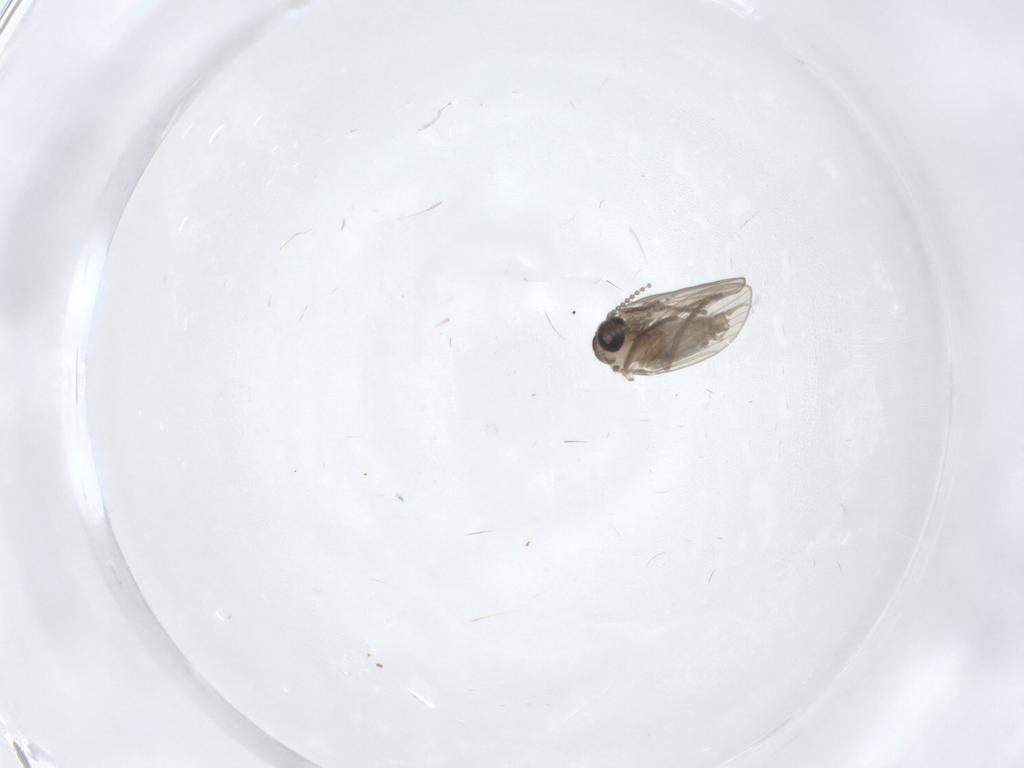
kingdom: Animalia
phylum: Arthropoda
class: Insecta
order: Diptera
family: Psychodidae
